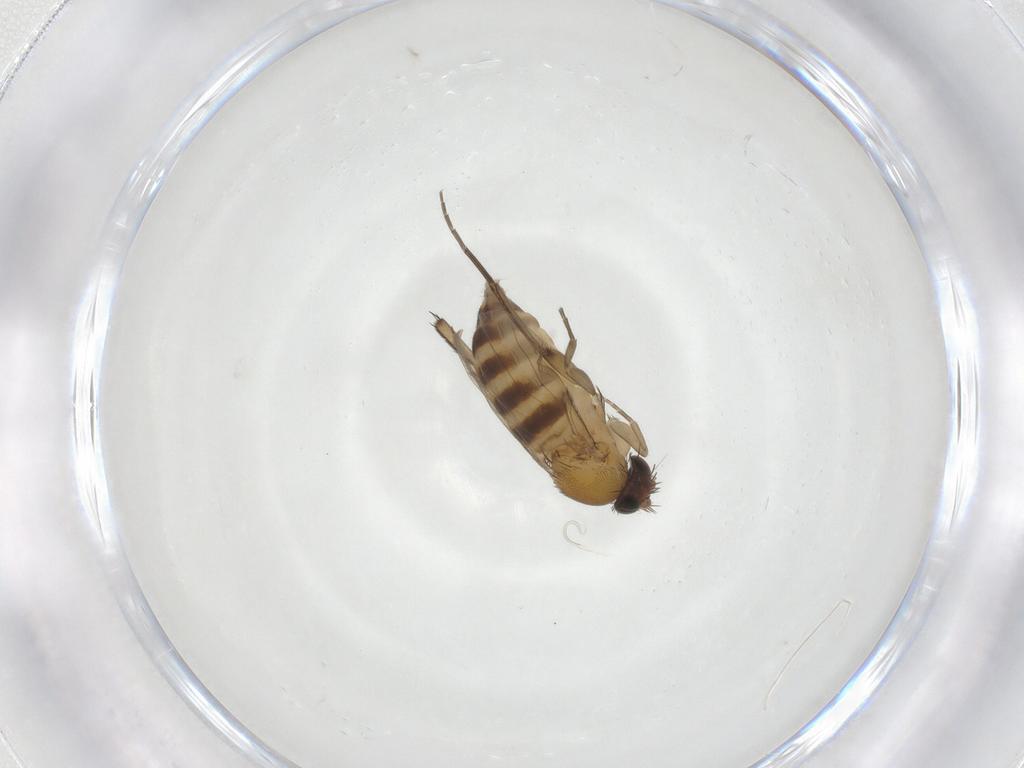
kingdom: Animalia
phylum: Arthropoda
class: Insecta
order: Diptera
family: Phoridae
